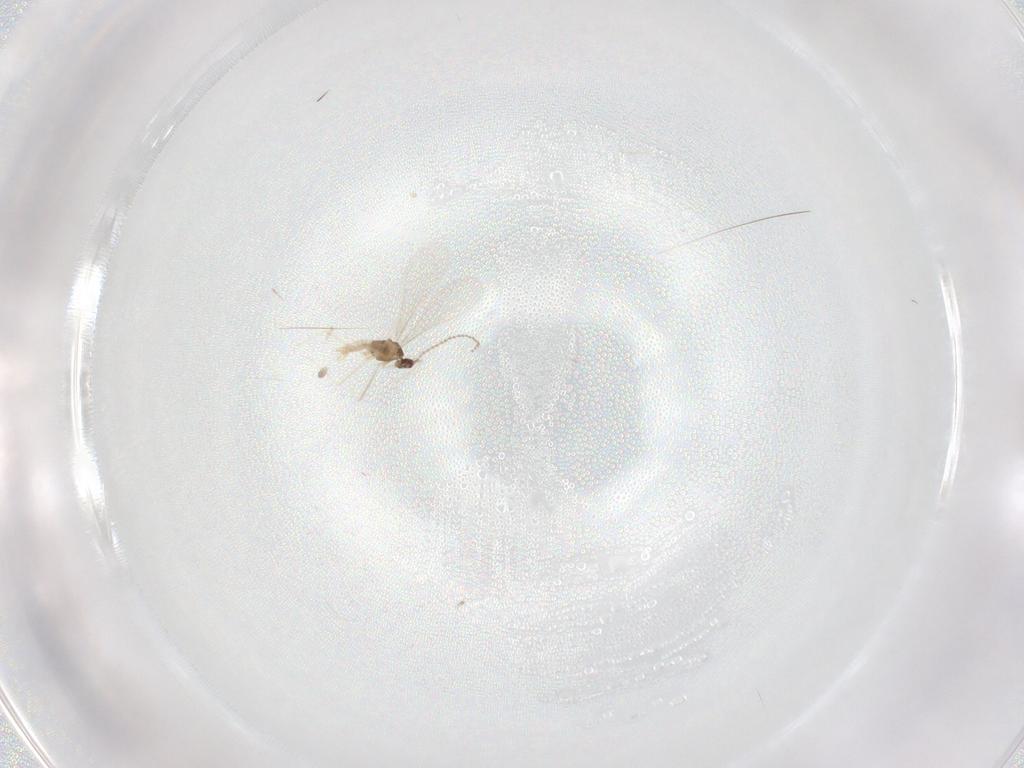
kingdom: Animalia
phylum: Arthropoda
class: Insecta
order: Diptera
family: Cecidomyiidae
